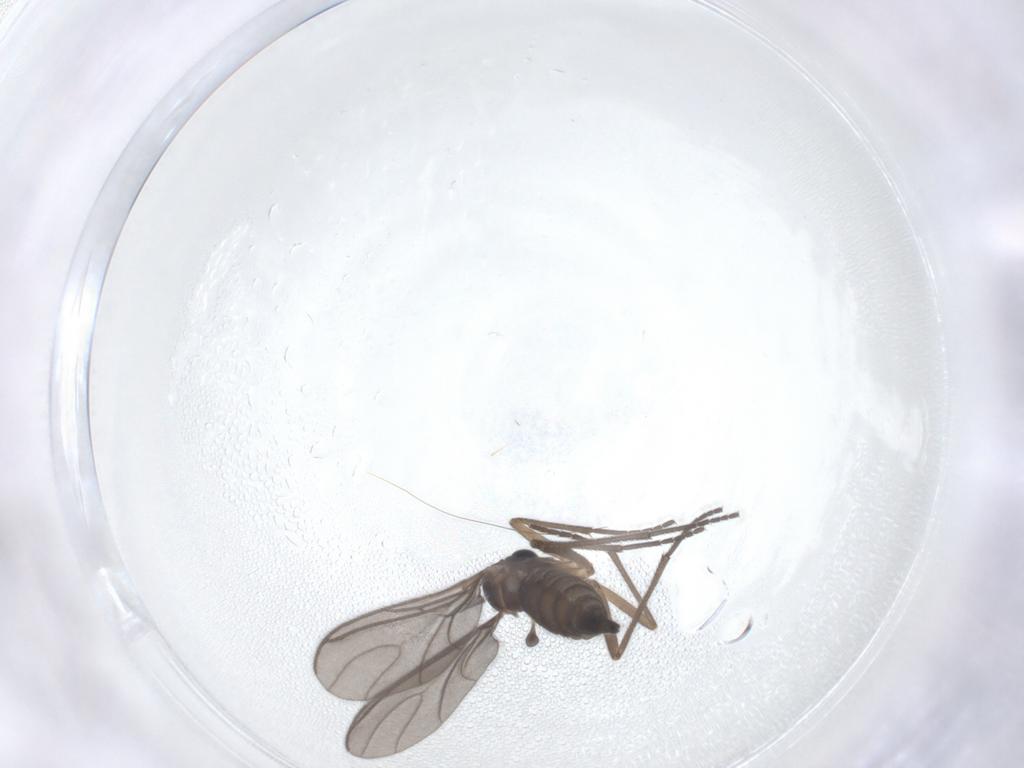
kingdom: Animalia
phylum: Arthropoda
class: Insecta
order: Diptera
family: Sciaridae
